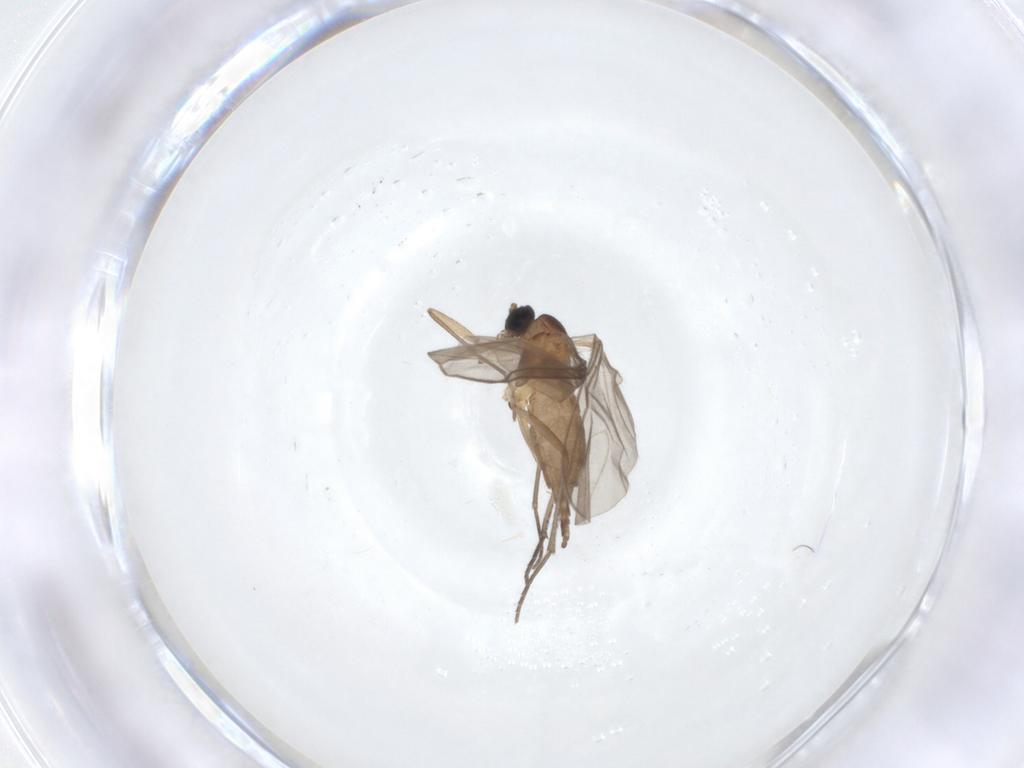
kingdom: Animalia
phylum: Arthropoda
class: Insecta
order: Diptera
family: Sciaridae
